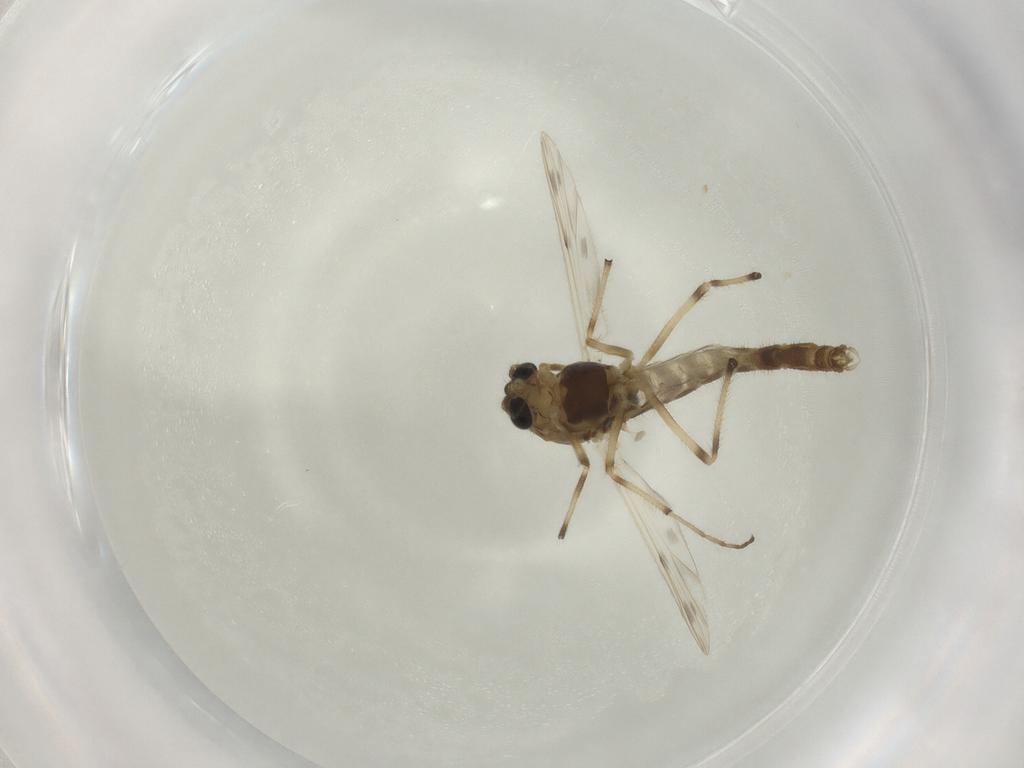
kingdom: Animalia
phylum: Arthropoda
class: Insecta
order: Diptera
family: Chironomidae
